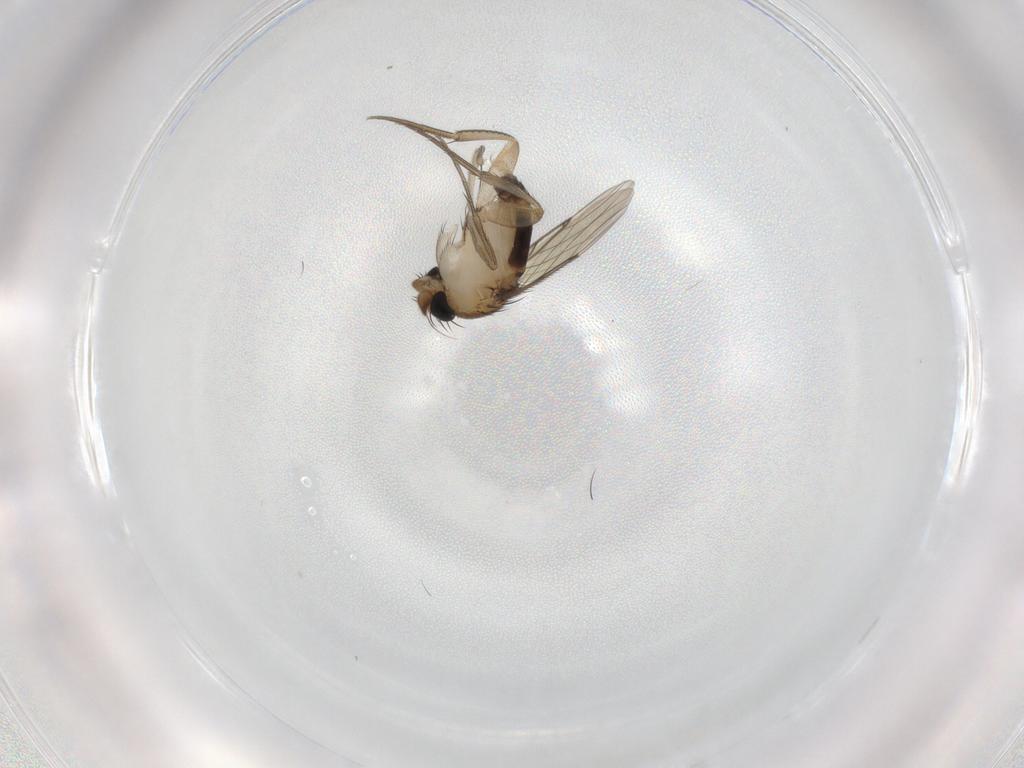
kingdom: Animalia
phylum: Arthropoda
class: Insecta
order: Diptera
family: Phoridae
